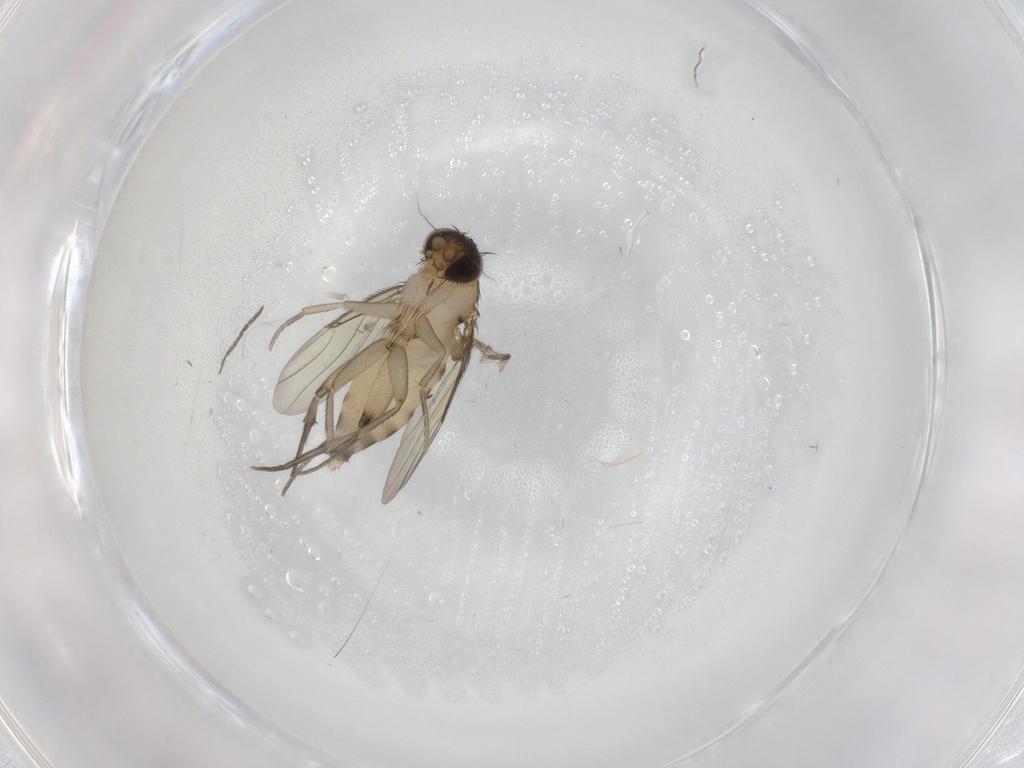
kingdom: Animalia
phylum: Arthropoda
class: Insecta
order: Diptera
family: Phoridae
